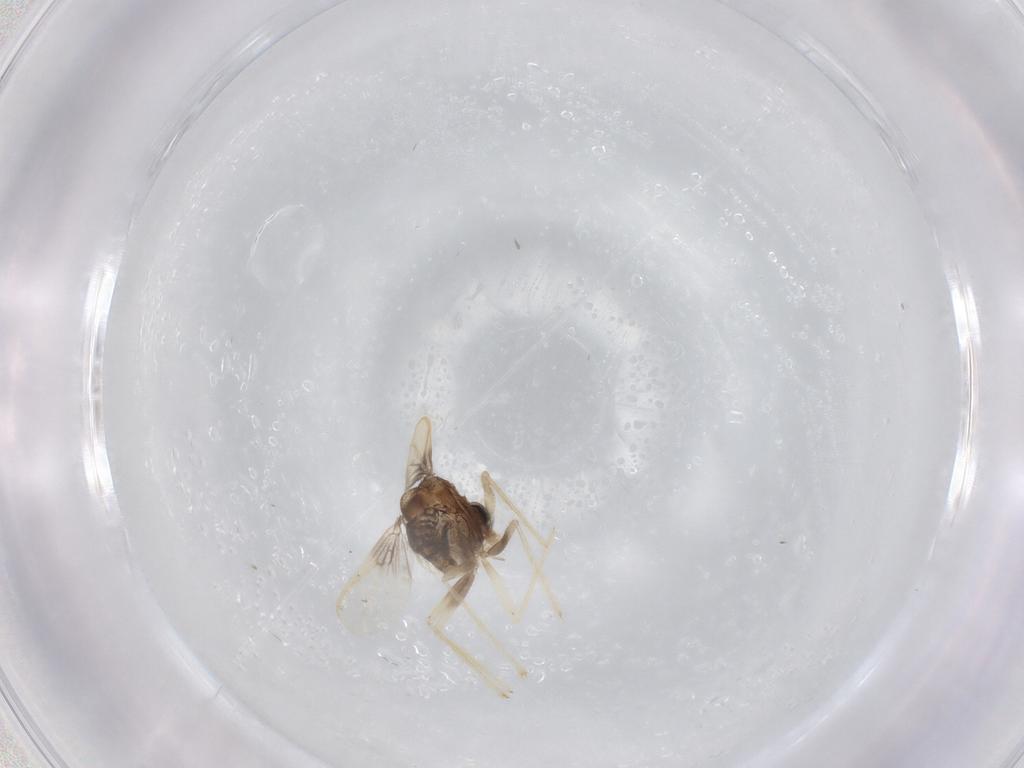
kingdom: Animalia
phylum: Arthropoda
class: Insecta
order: Diptera
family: Chironomidae
